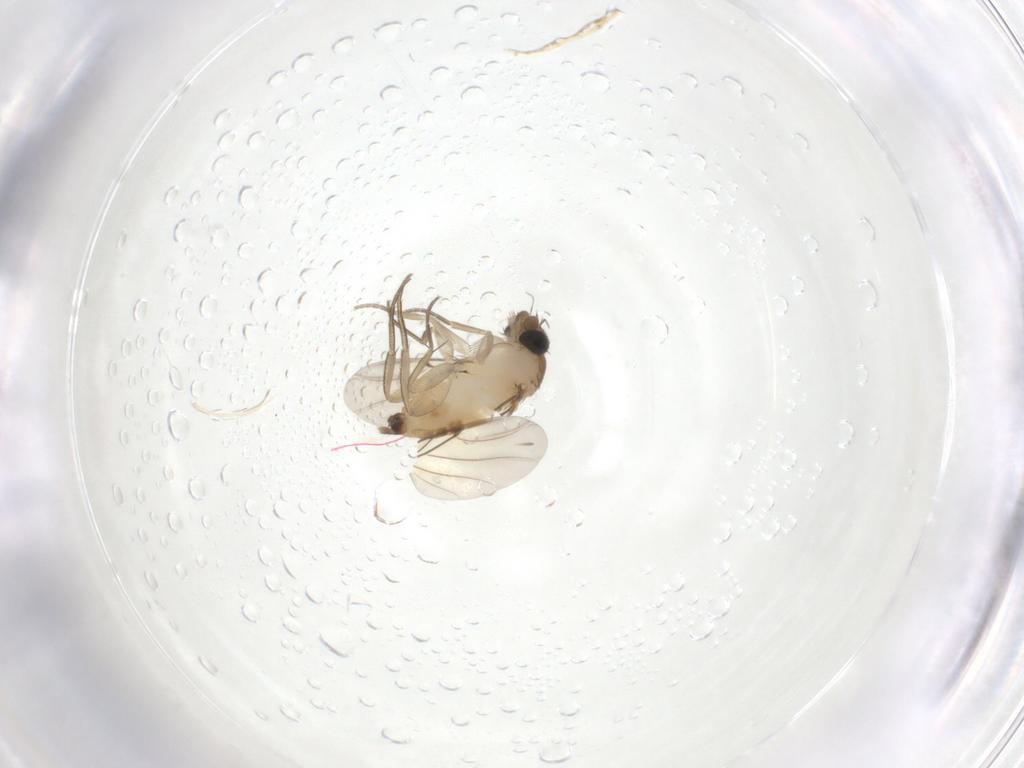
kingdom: Animalia
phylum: Arthropoda
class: Insecta
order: Diptera
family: Phoridae
